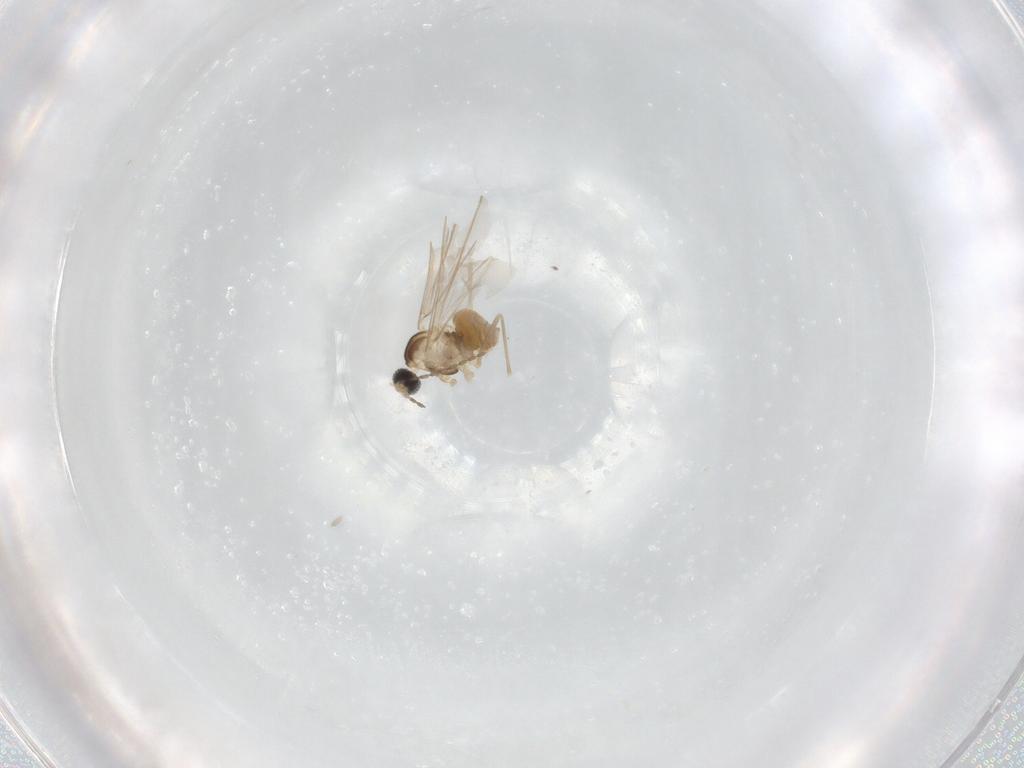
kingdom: Animalia
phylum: Arthropoda
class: Insecta
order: Diptera
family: Cecidomyiidae
